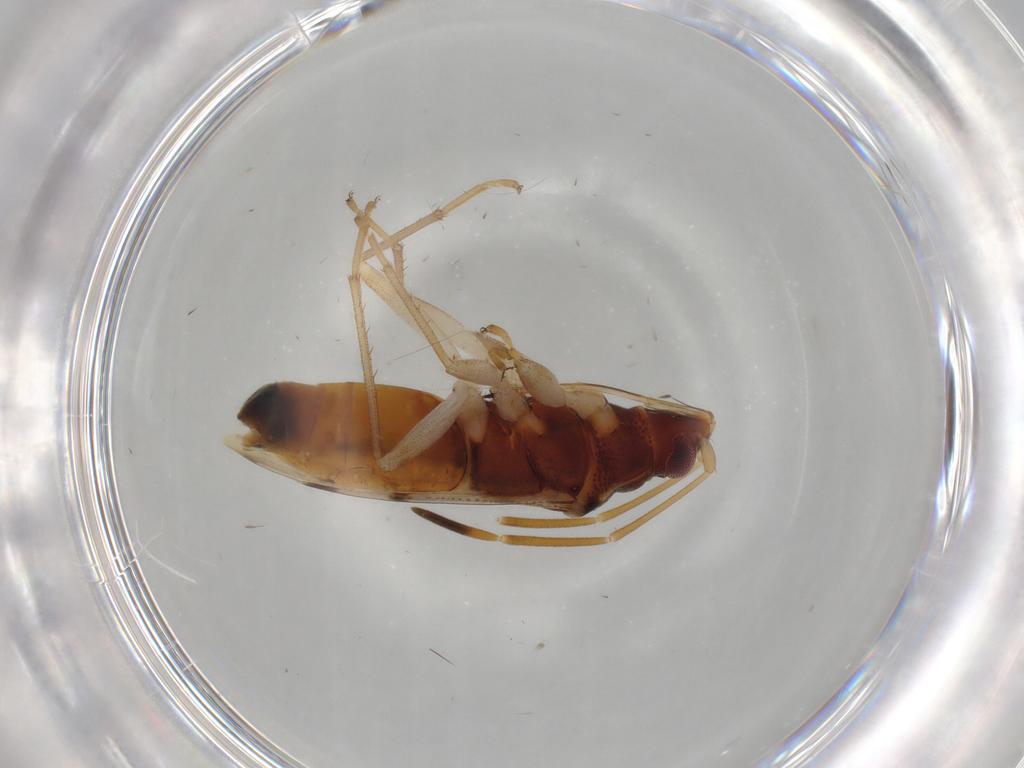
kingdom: Animalia
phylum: Arthropoda
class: Insecta
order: Hemiptera
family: Rhyparochromidae
